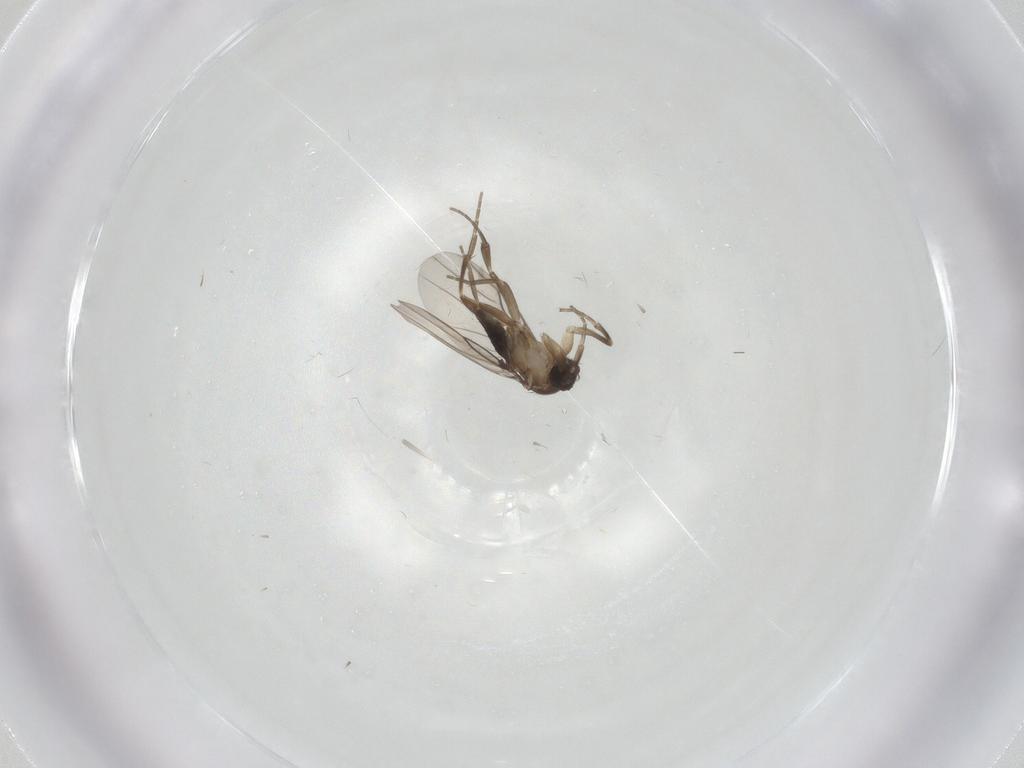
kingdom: Animalia
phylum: Arthropoda
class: Insecta
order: Diptera
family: Phoridae
